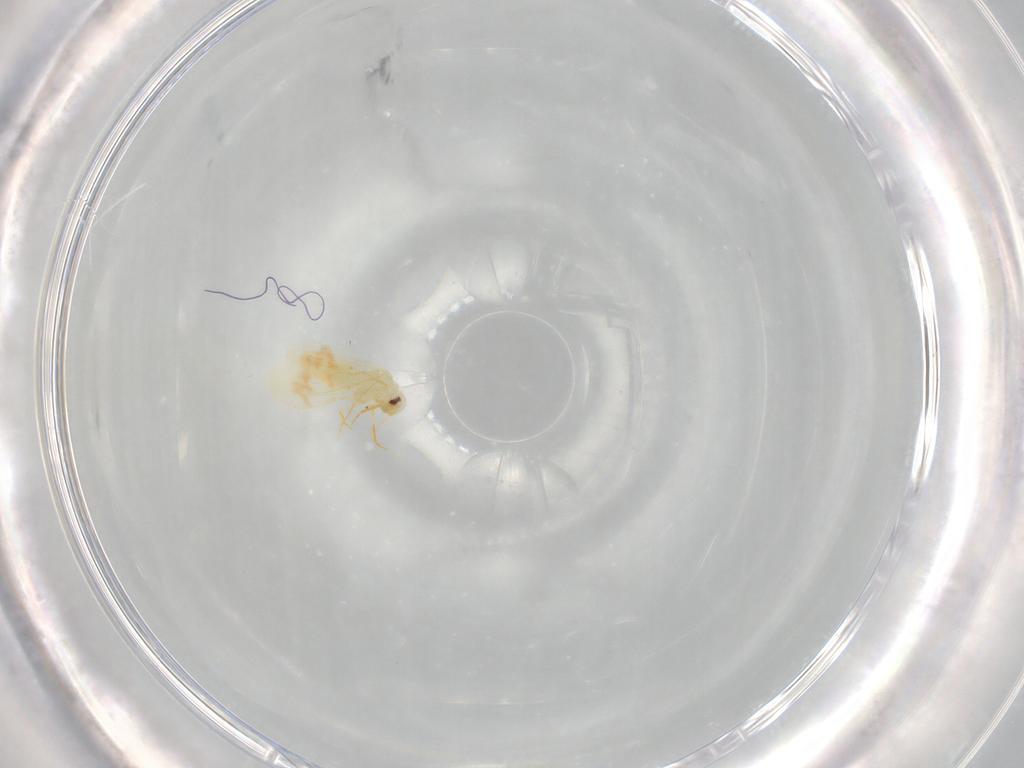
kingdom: Animalia
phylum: Arthropoda
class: Insecta
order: Hemiptera
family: Aleyrodidae
